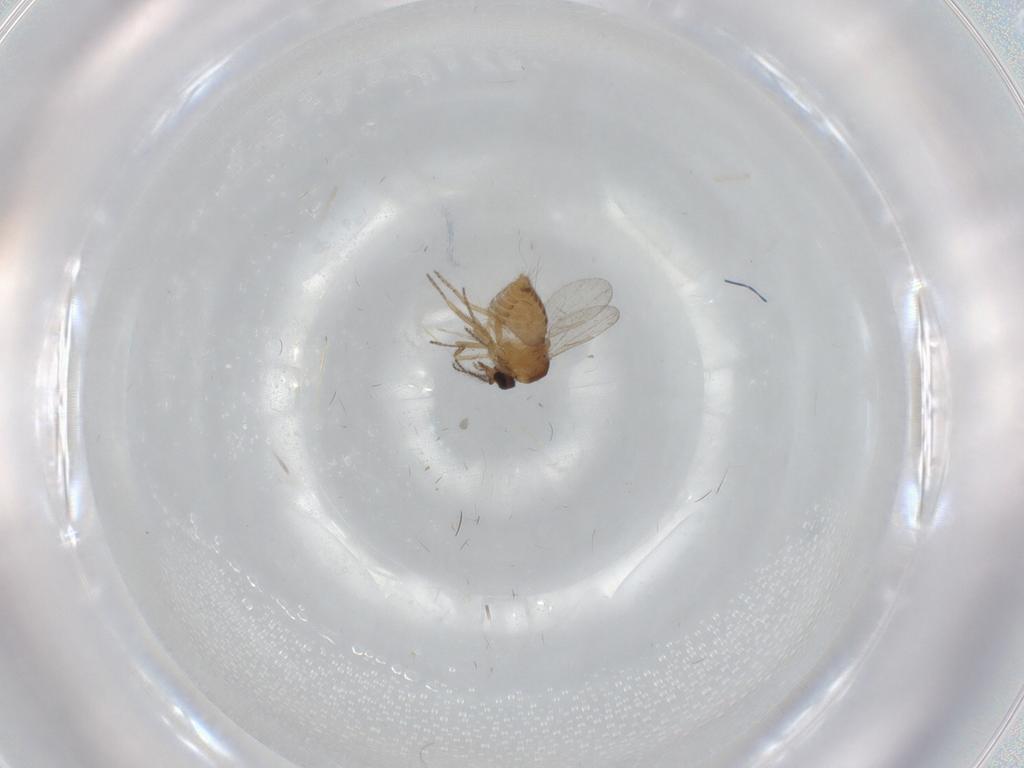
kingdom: Animalia
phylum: Arthropoda
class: Insecta
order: Diptera
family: Ceratopogonidae
